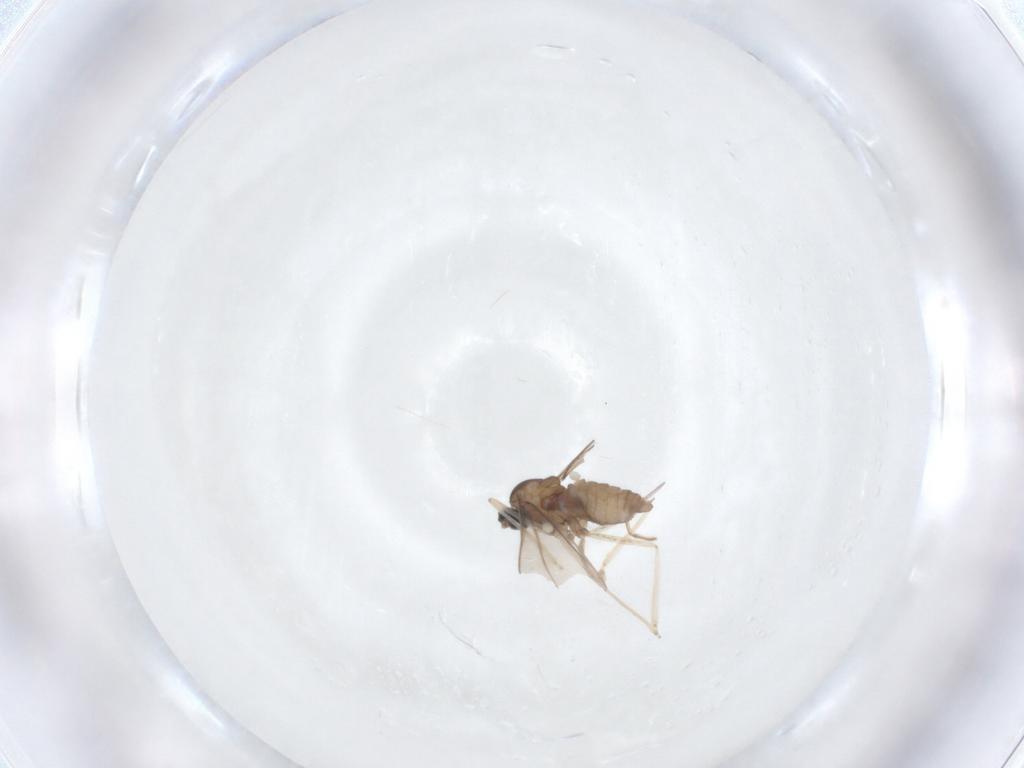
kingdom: Animalia
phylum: Arthropoda
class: Insecta
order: Diptera
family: Cecidomyiidae
